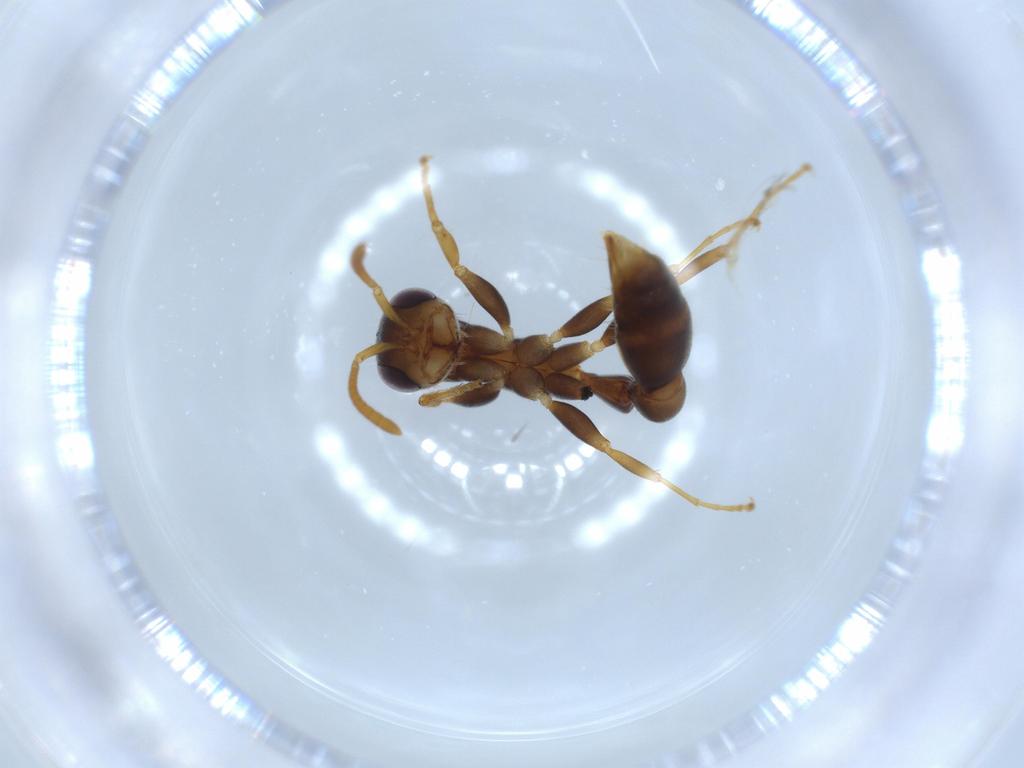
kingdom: Animalia
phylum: Arthropoda
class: Insecta
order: Hymenoptera
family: Formicidae
